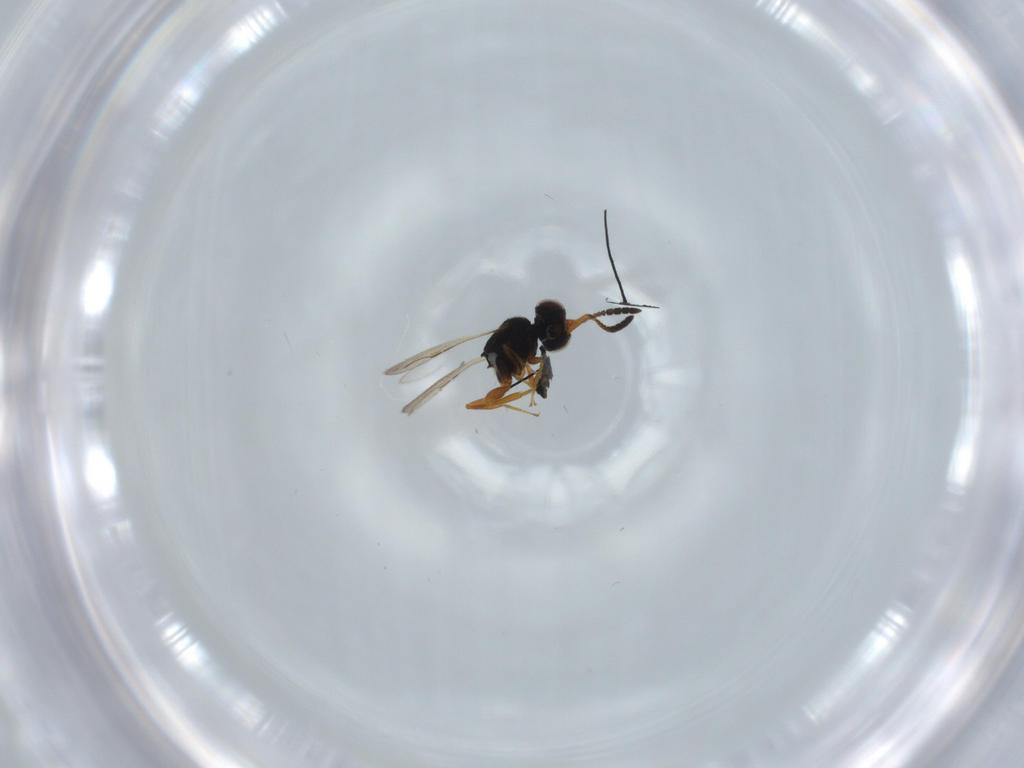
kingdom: Animalia
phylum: Arthropoda
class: Insecta
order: Hymenoptera
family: Ceraphronidae
